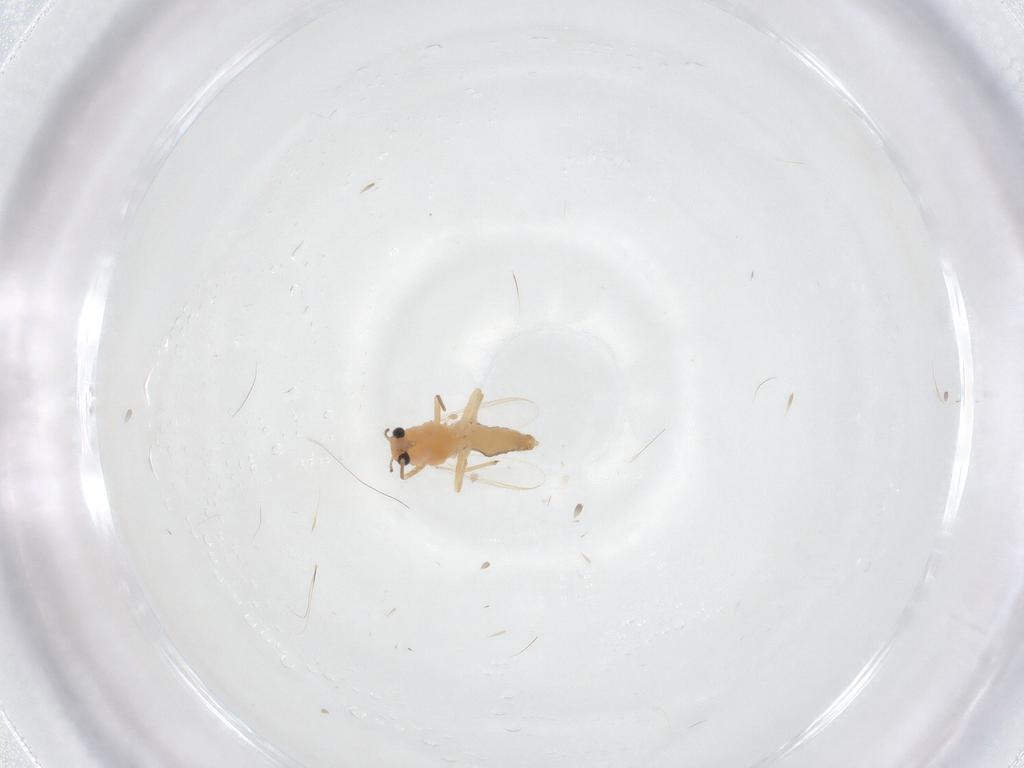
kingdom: Animalia
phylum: Arthropoda
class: Insecta
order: Diptera
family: Chironomidae
